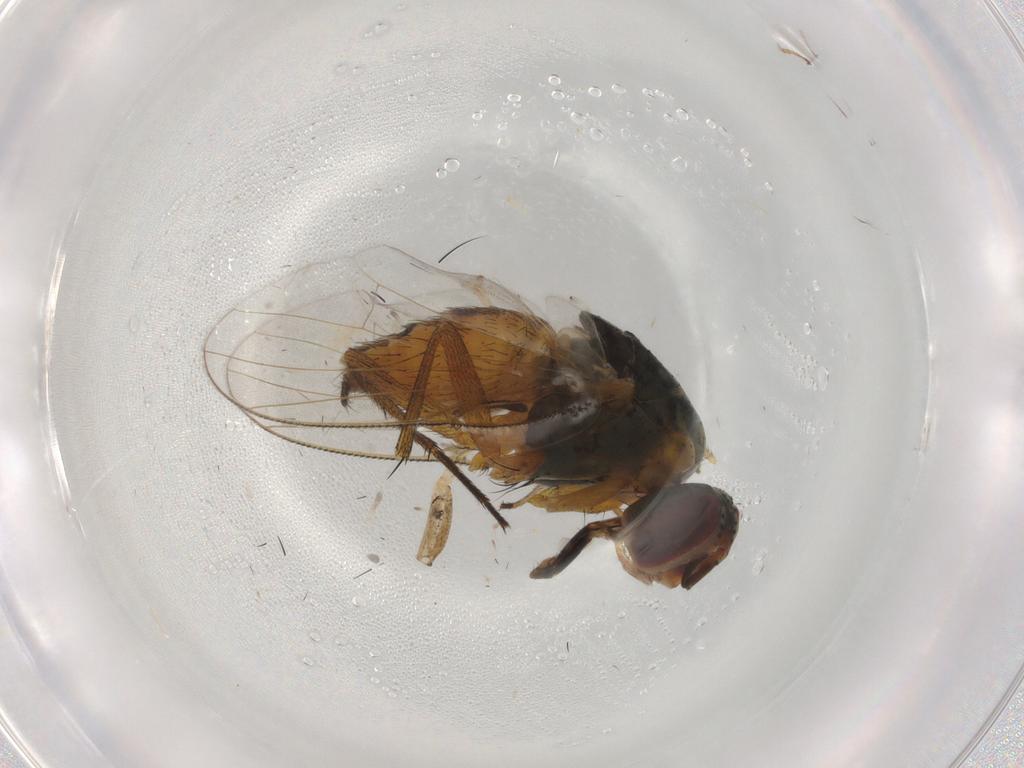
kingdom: Animalia
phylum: Arthropoda
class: Insecta
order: Diptera
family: Muscidae
